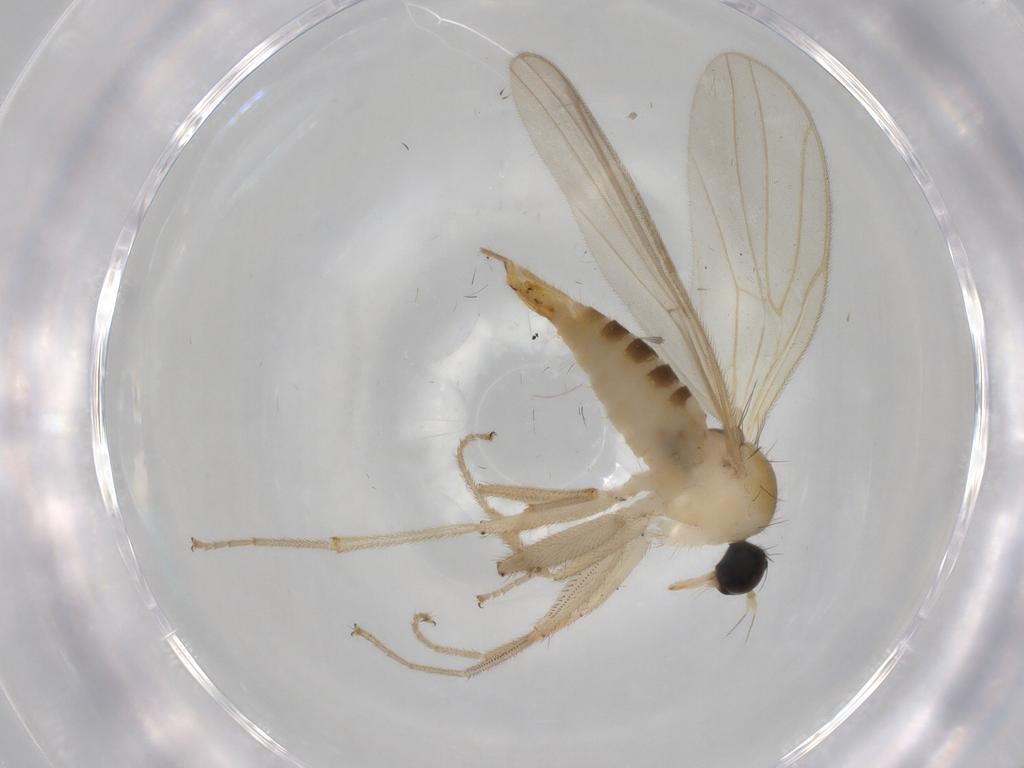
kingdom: Animalia
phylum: Arthropoda
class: Insecta
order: Diptera
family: Hybotidae
